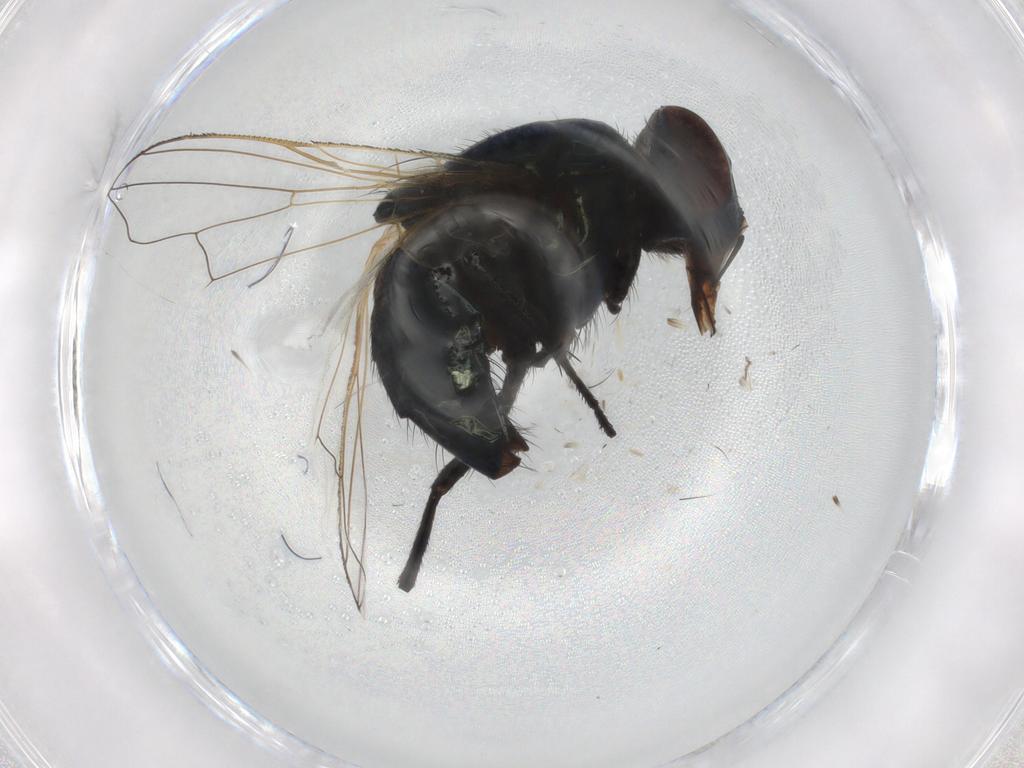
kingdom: Animalia
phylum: Arthropoda
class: Insecta
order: Diptera
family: Muscidae
